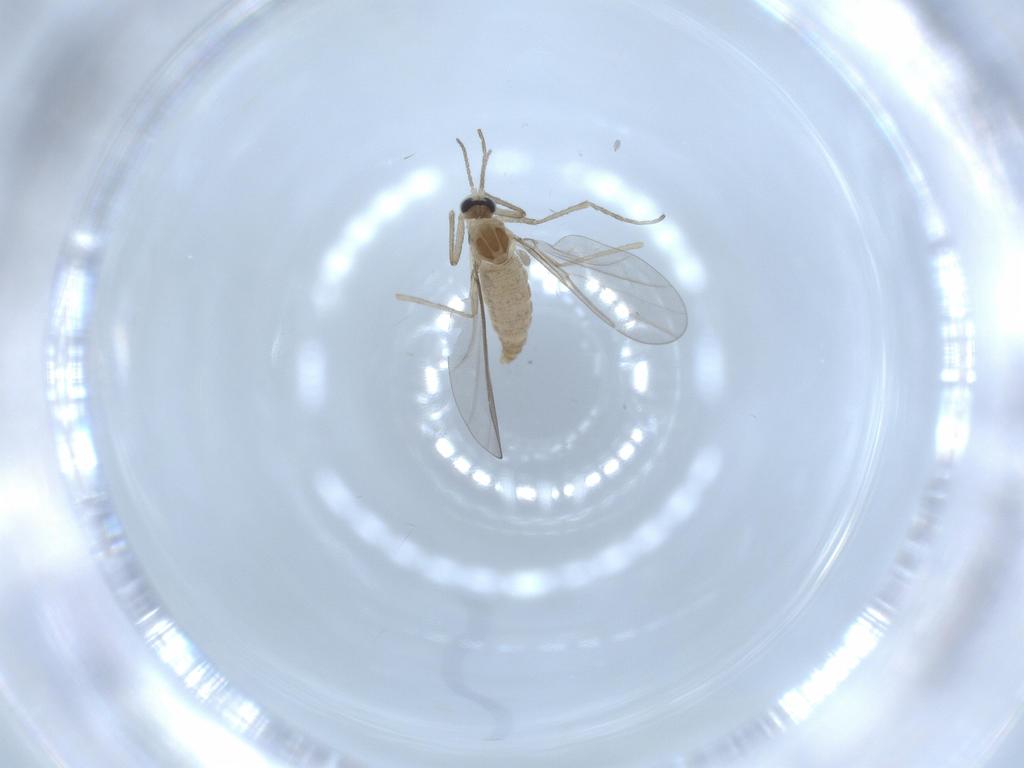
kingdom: Animalia
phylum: Arthropoda
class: Insecta
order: Diptera
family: Sciaridae
